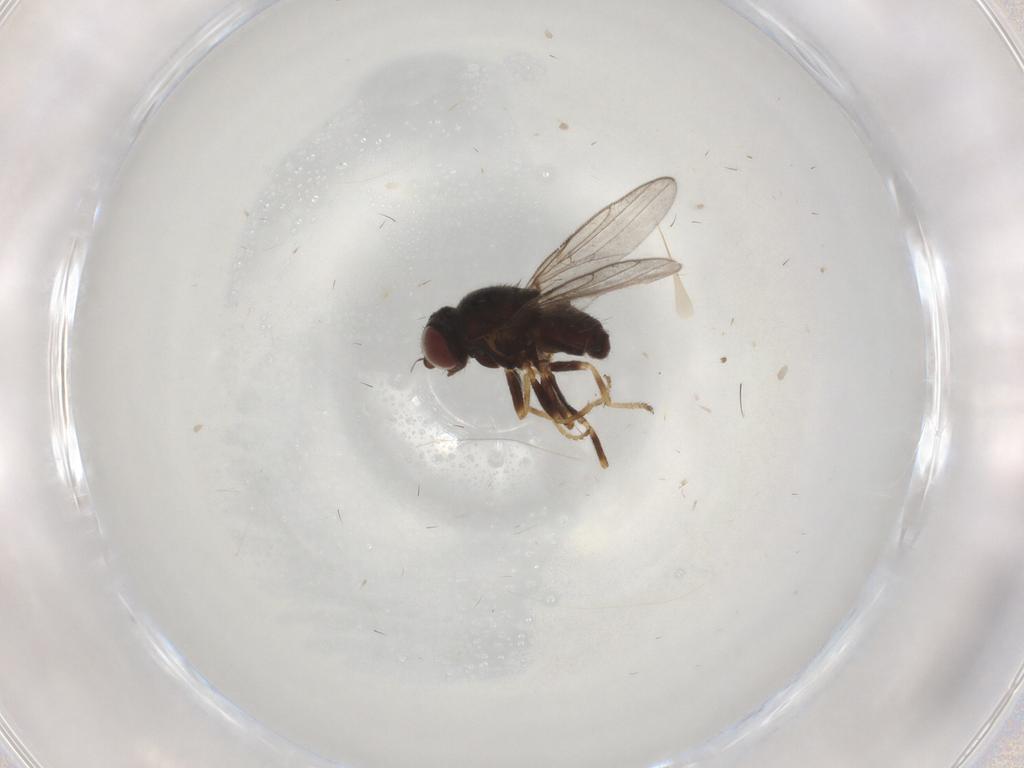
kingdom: Animalia
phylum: Arthropoda
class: Insecta
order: Diptera
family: Chloropidae
